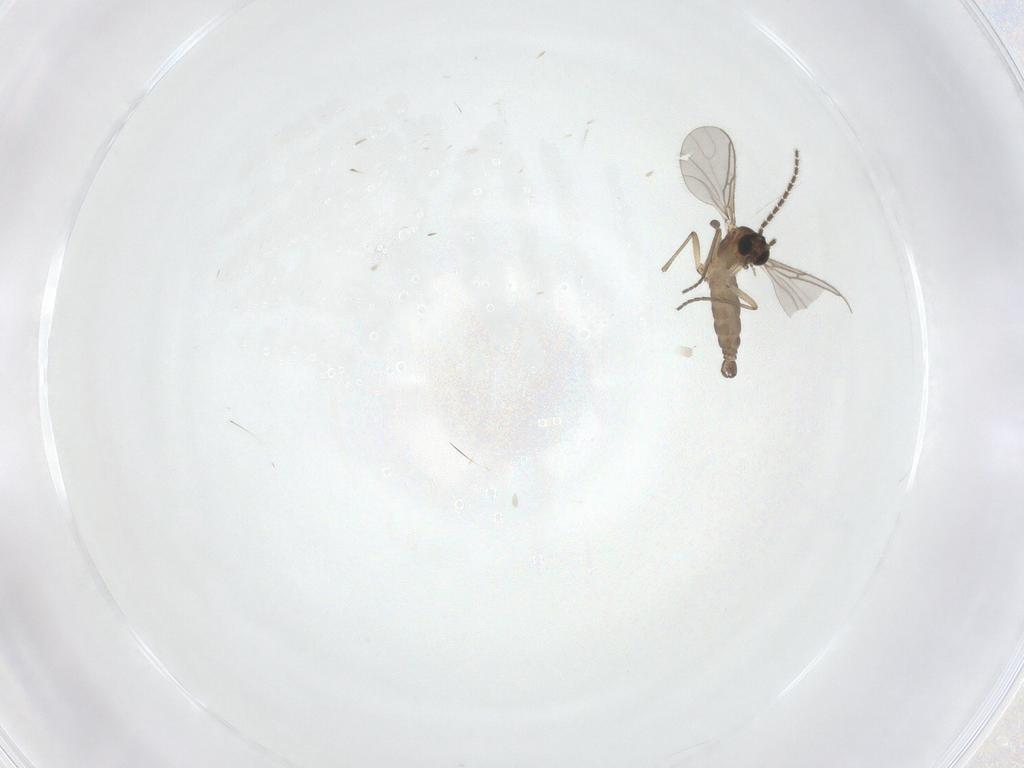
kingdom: Animalia
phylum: Arthropoda
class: Insecta
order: Diptera
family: Sciaridae
